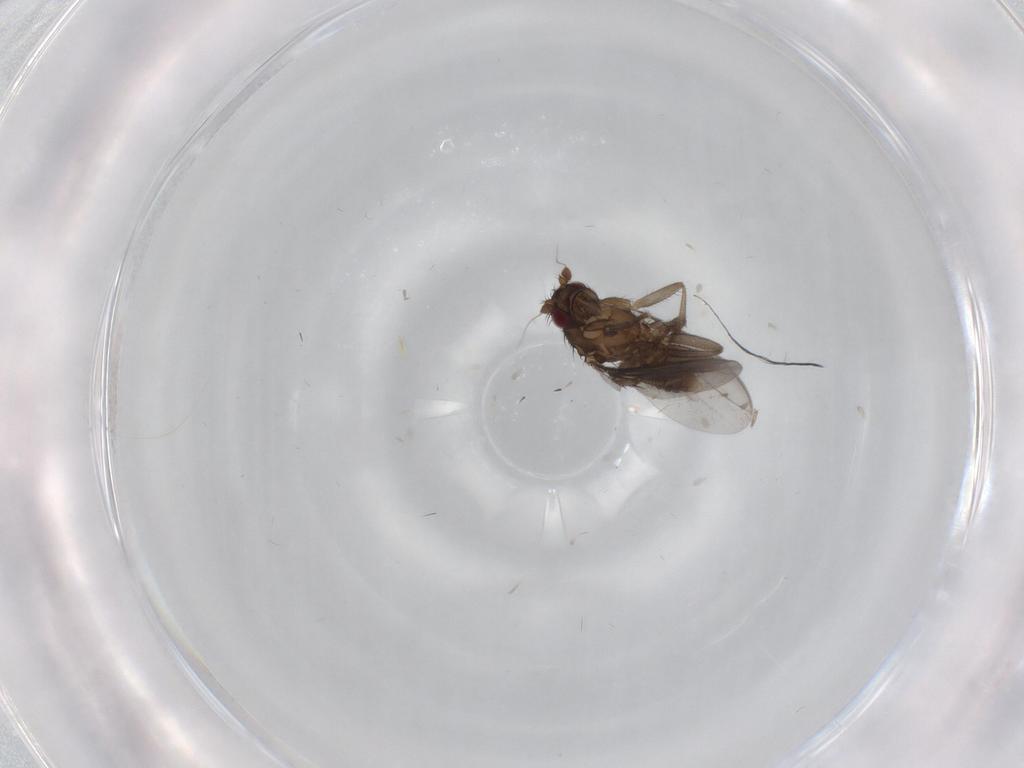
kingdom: Animalia
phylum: Arthropoda
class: Insecta
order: Diptera
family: Sphaeroceridae
